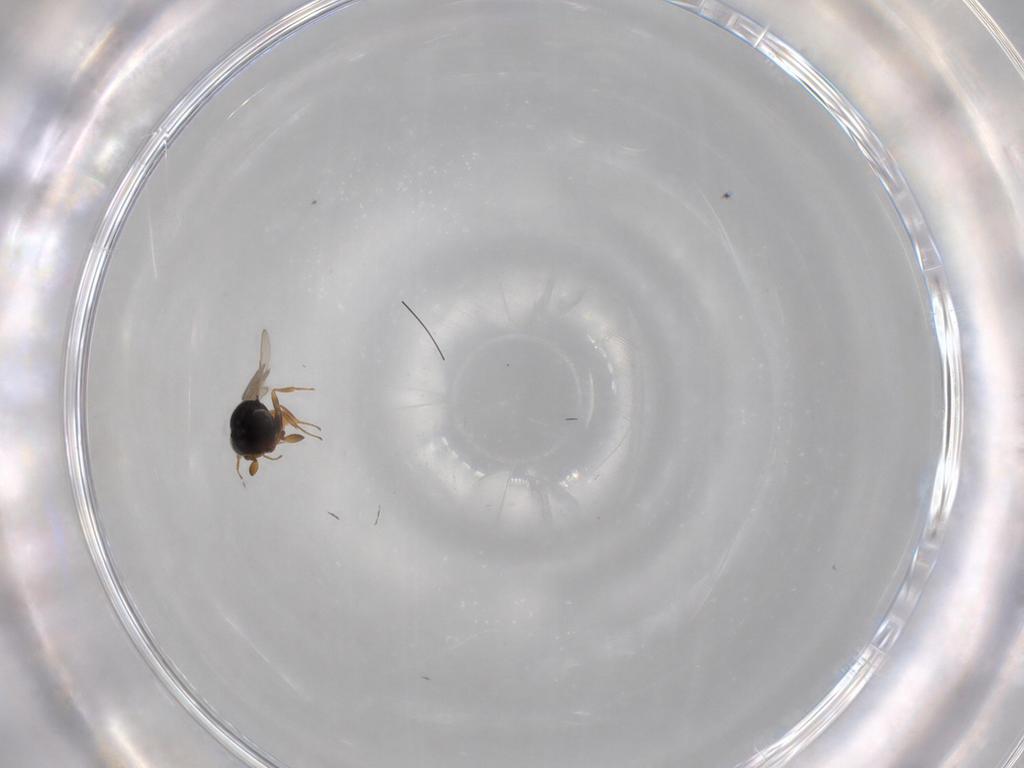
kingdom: Animalia
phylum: Arthropoda
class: Insecta
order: Hymenoptera
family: Scelionidae
